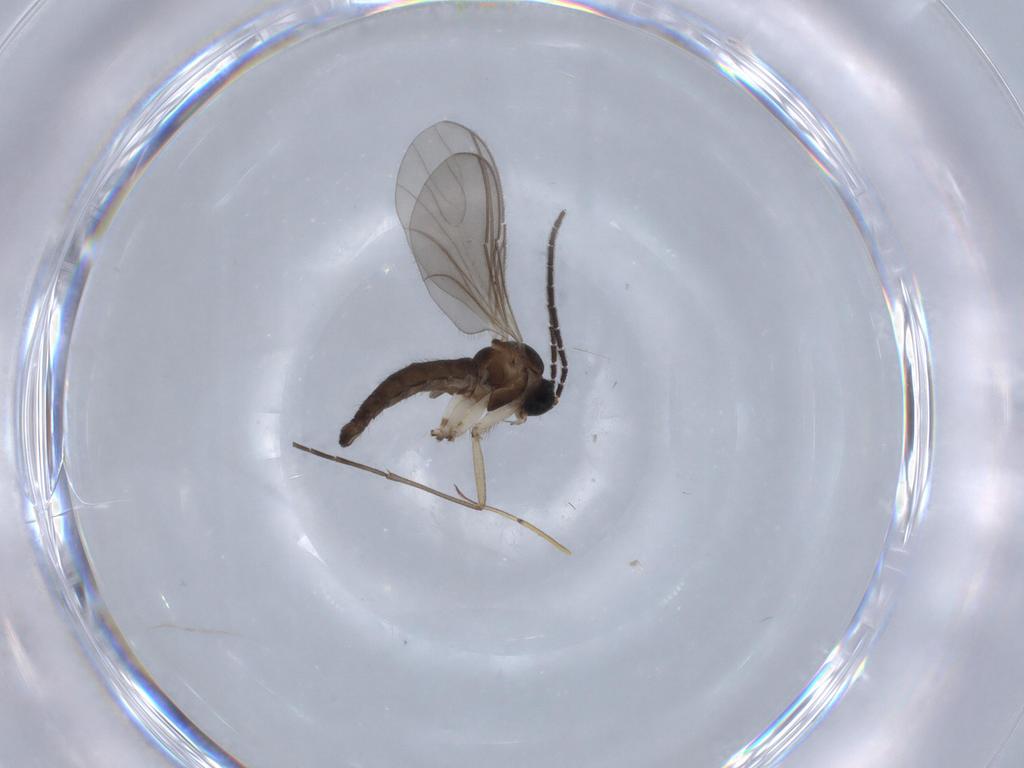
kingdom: Animalia
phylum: Arthropoda
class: Insecta
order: Diptera
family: Sciaridae
